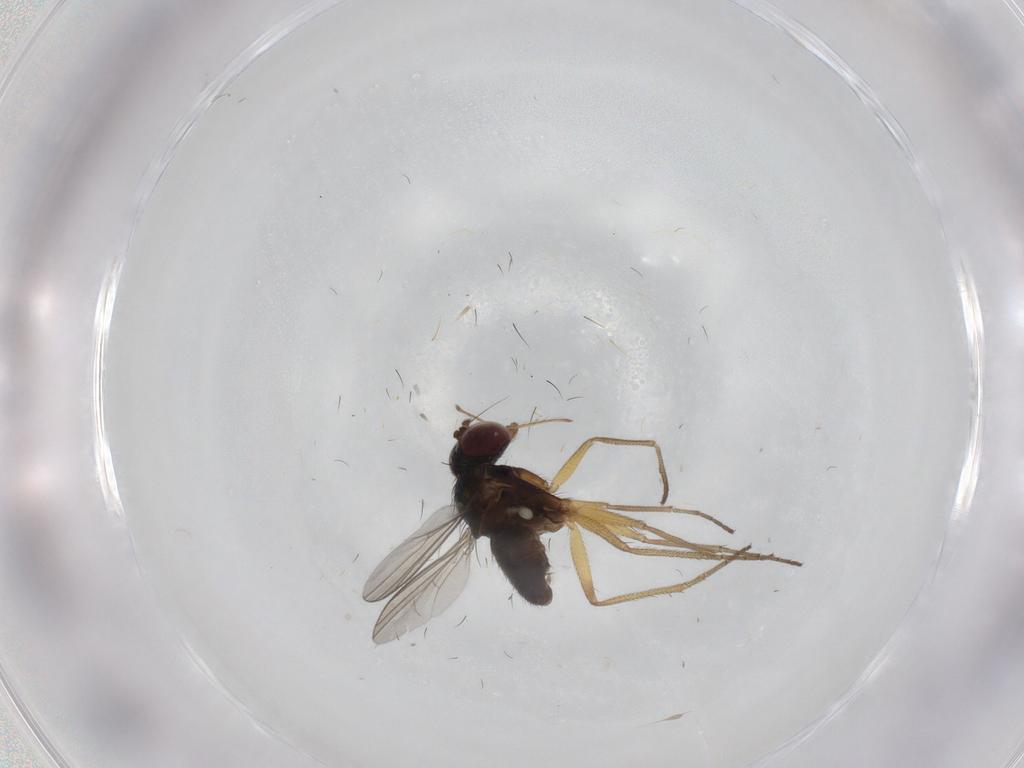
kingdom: Animalia
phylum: Arthropoda
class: Insecta
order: Diptera
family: Dolichopodidae
